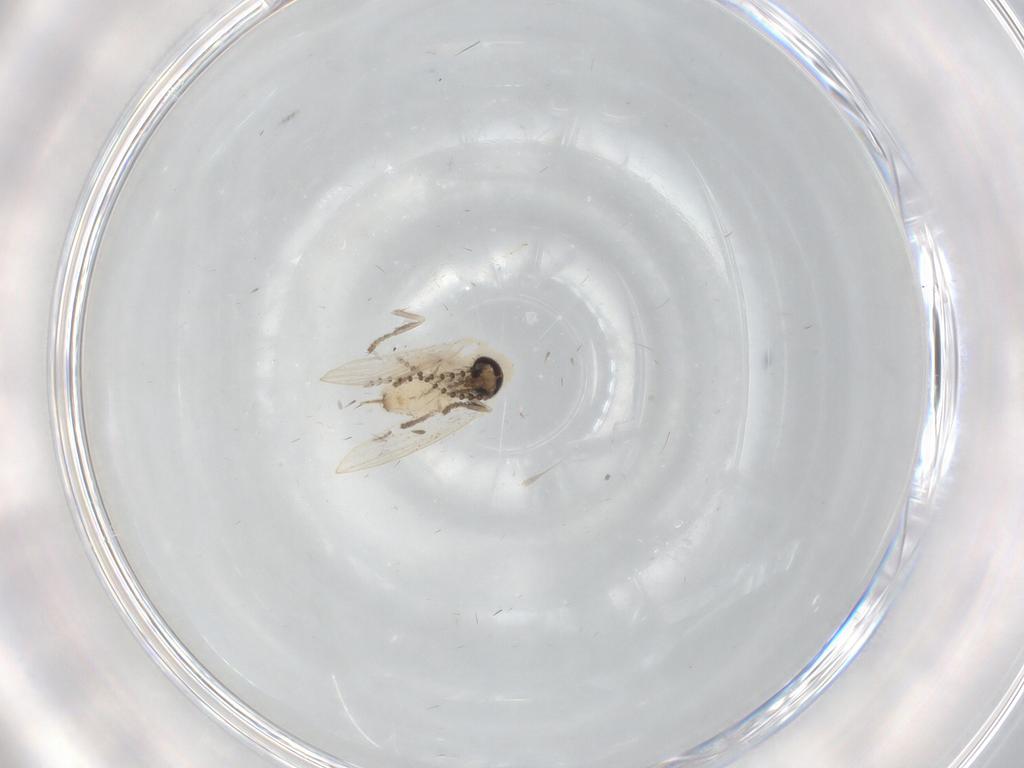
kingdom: Animalia
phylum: Arthropoda
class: Insecta
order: Diptera
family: Psychodidae
